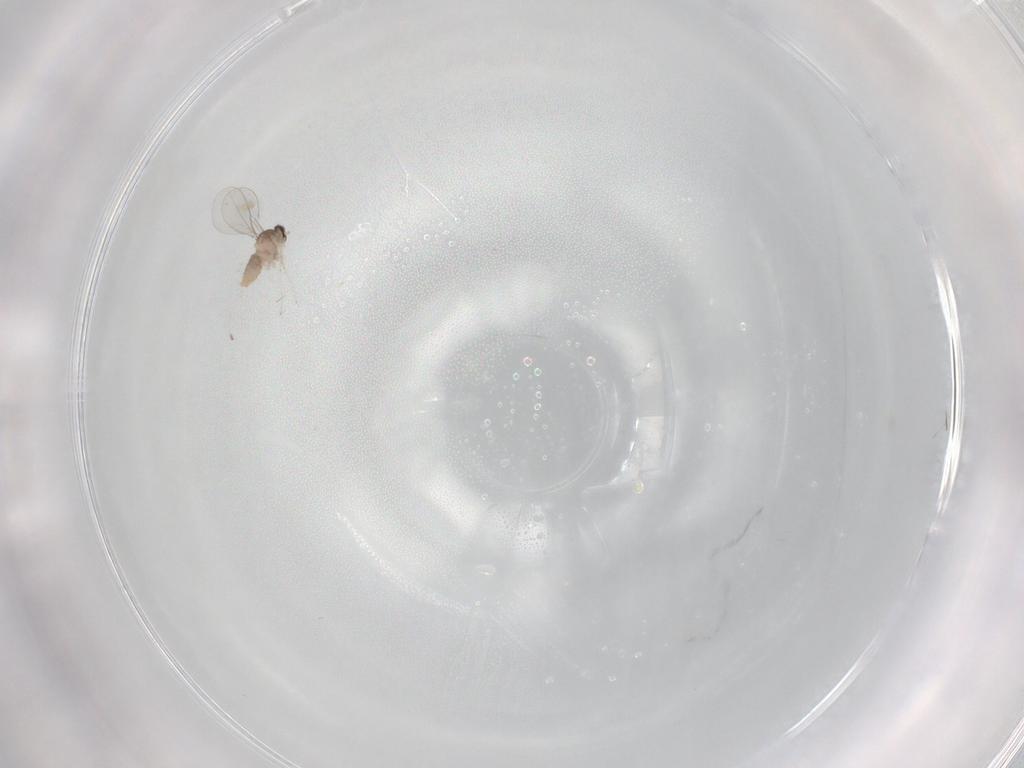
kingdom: Animalia
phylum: Arthropoda
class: Insecta
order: Diptera
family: Phoridae
